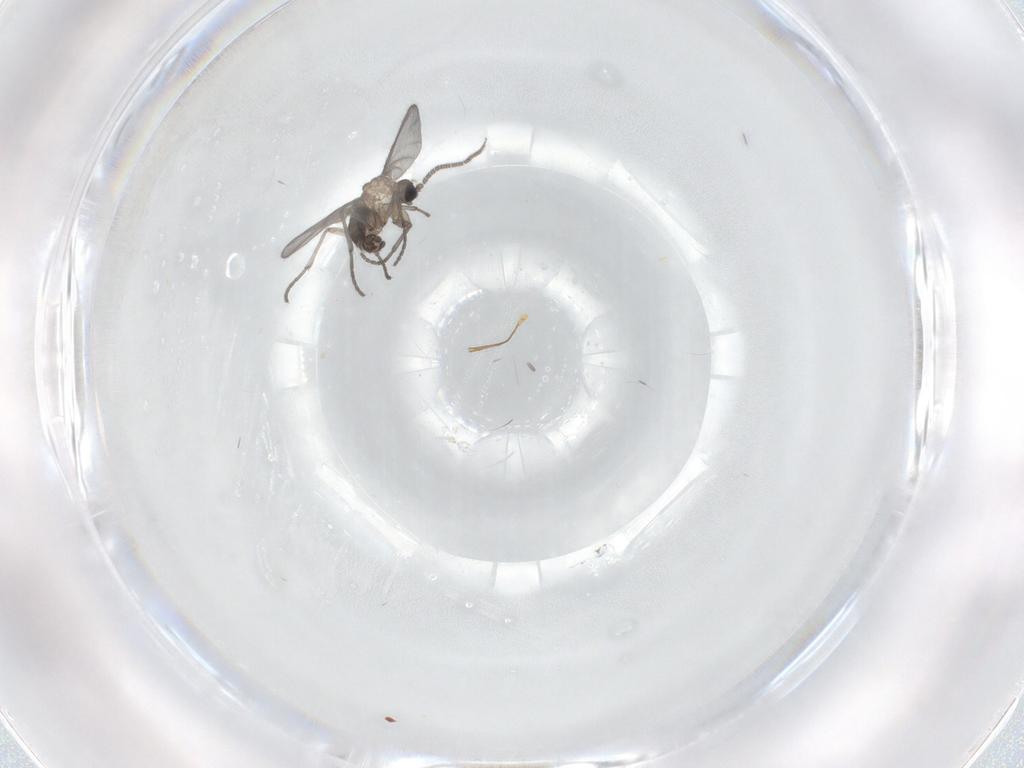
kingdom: Animalia
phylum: Arthropoda
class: Insecta
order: Diptera
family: Sciaridae
